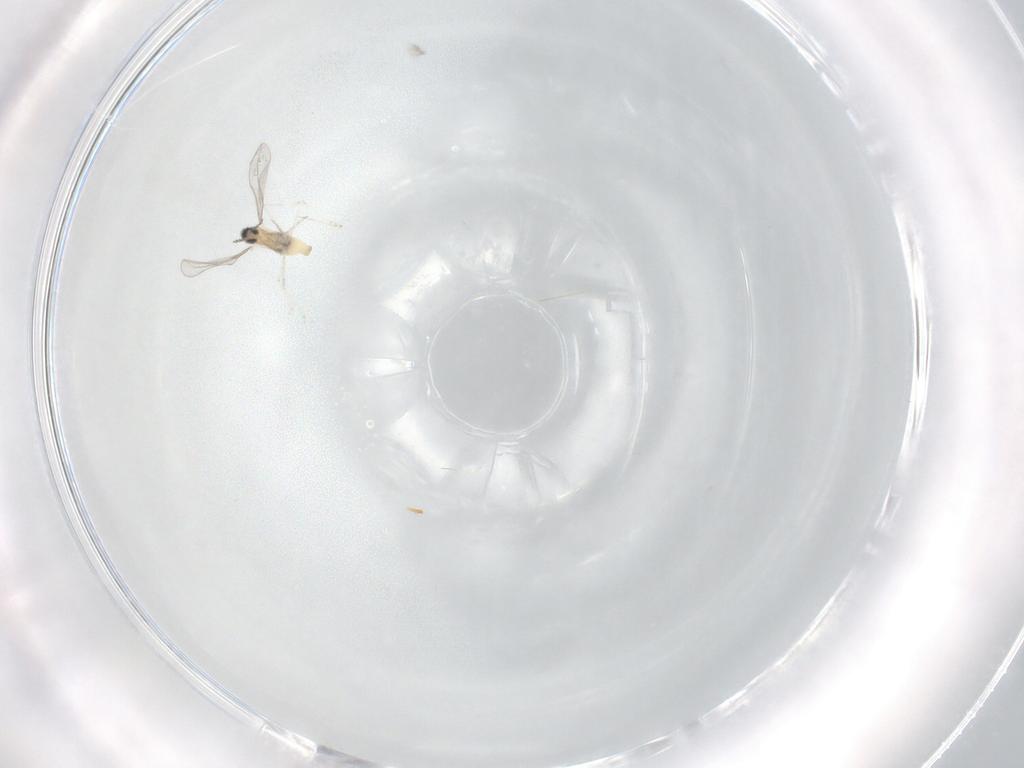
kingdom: Animalia
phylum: Arthropoda
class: Insecta
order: Diptera
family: Cecidomyiidae
